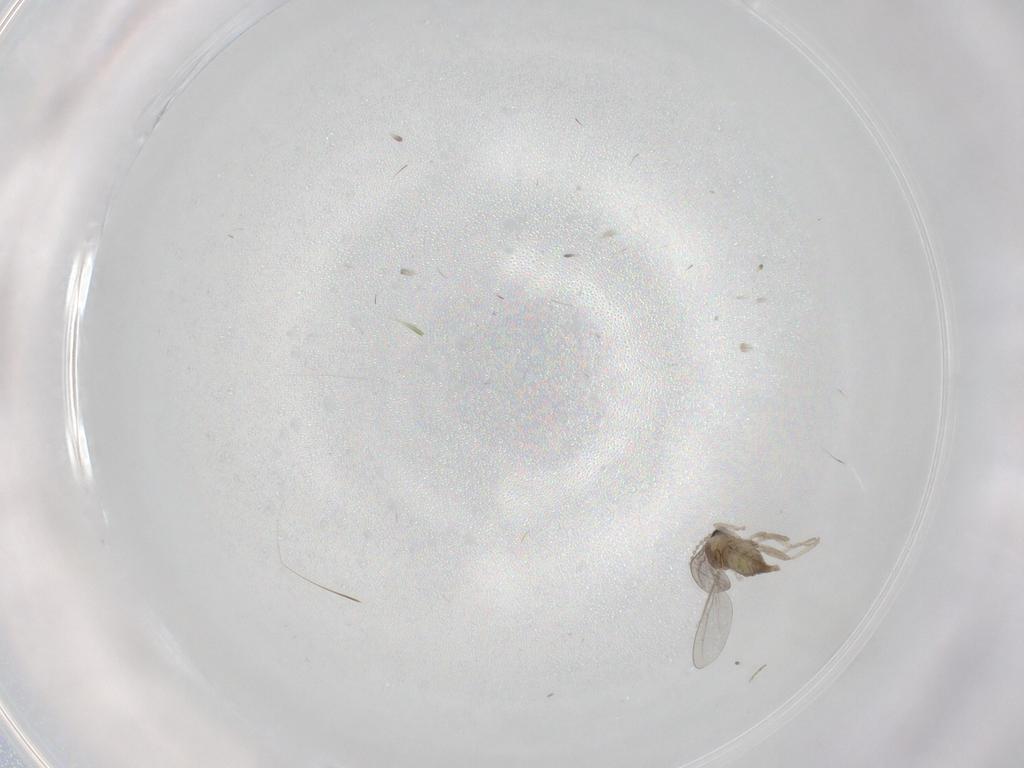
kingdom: Animalia
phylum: Arthropoda
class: Insecta
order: Diptera
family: Cecidomyiidae
